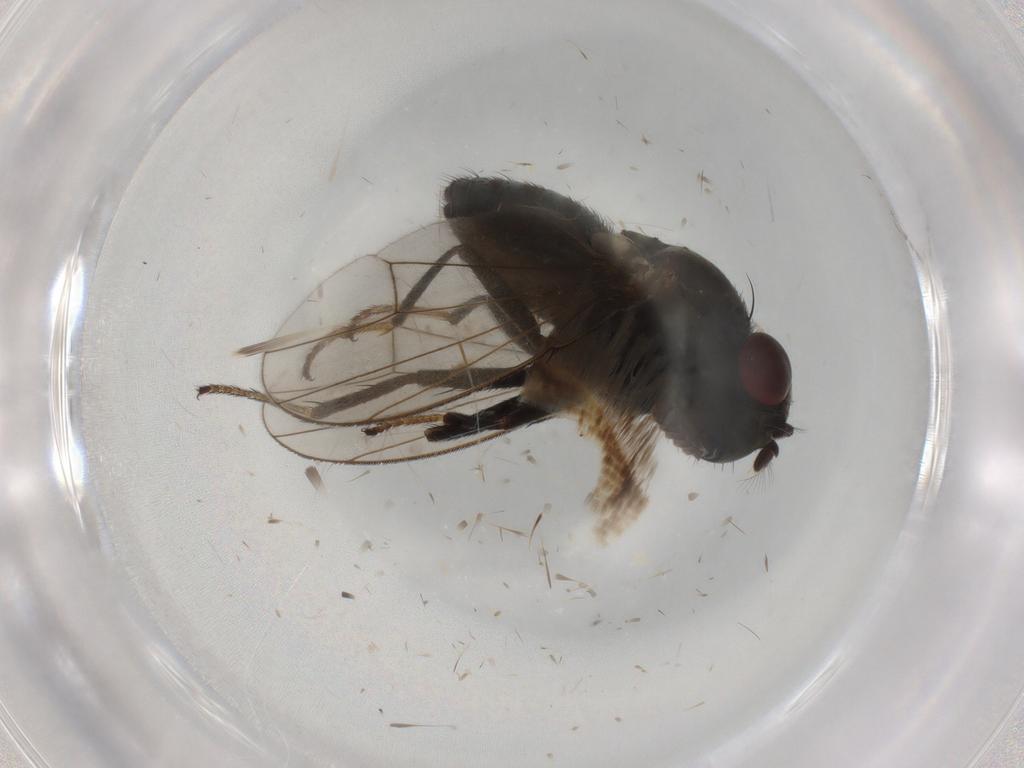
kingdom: Animalia
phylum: Arthropoda
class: Insecta
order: Diptera
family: Ephydridae
